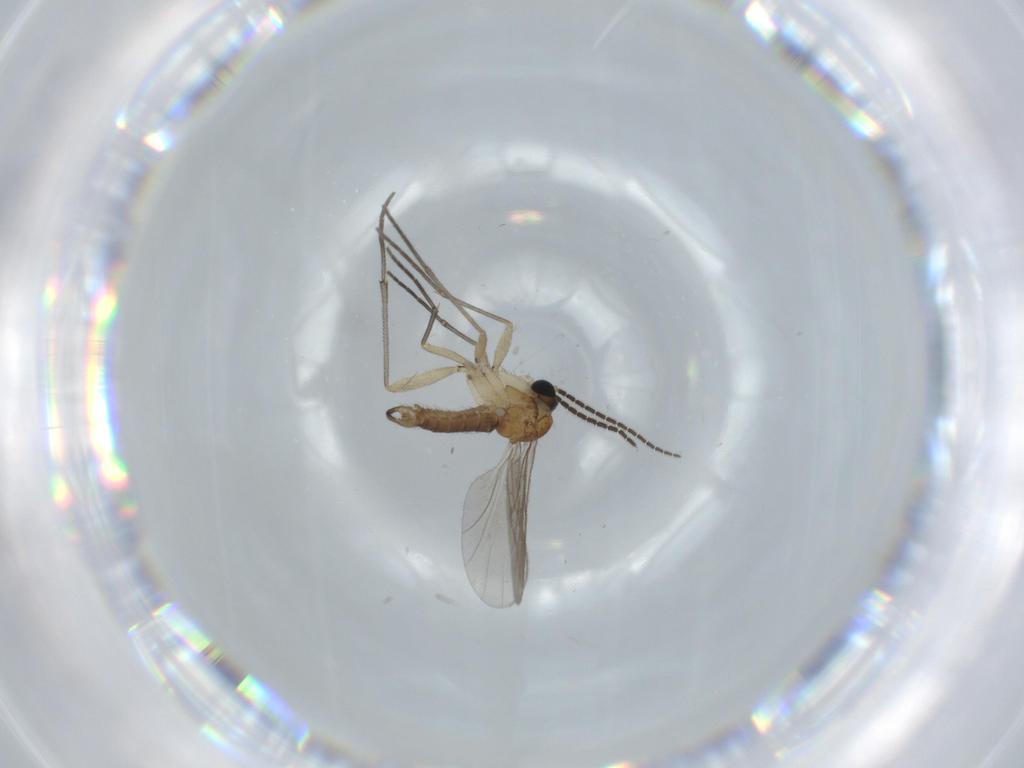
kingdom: Animalia
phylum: Arthropoda
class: Insecta
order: Diptera
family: Sciaridae
